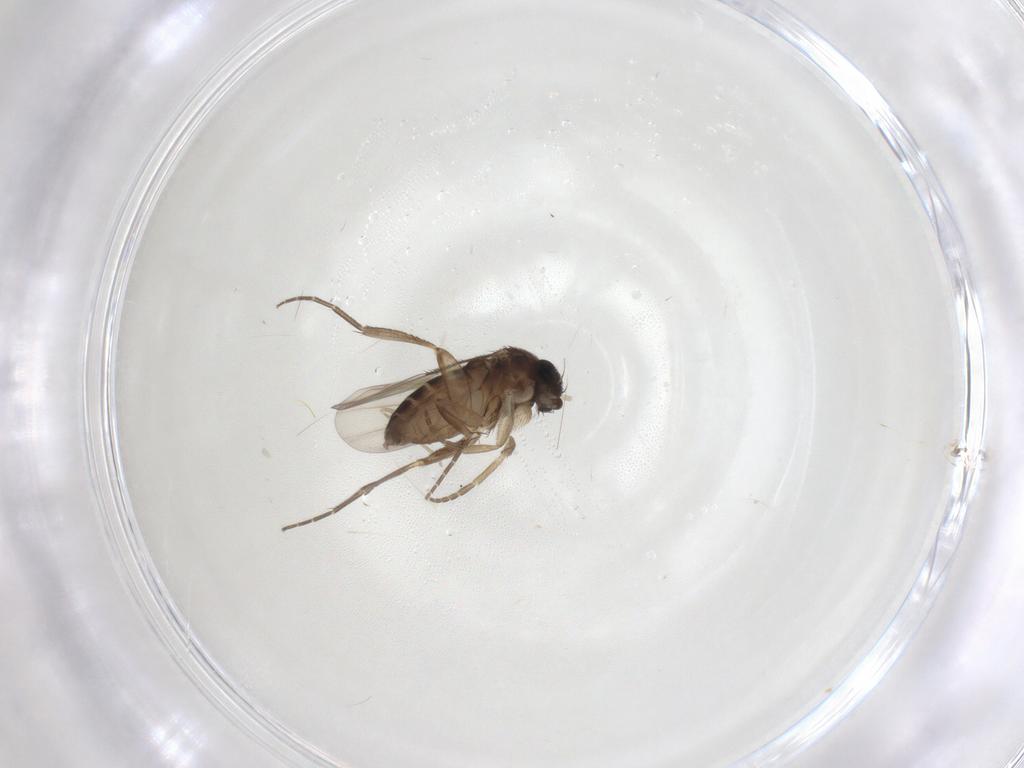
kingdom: Animalia
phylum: Arthropoda
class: Insecta
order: Diptera
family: Phoridae
